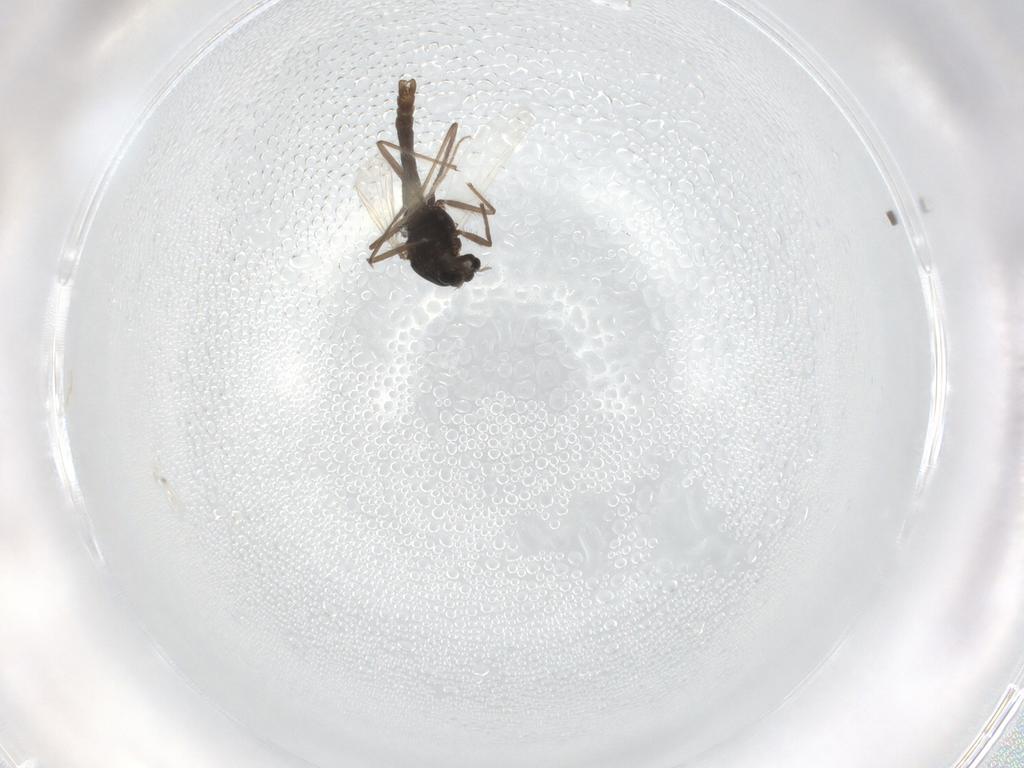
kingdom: Animalia
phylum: Arthropoda
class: Insecta
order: Diptera
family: Chironomidae
